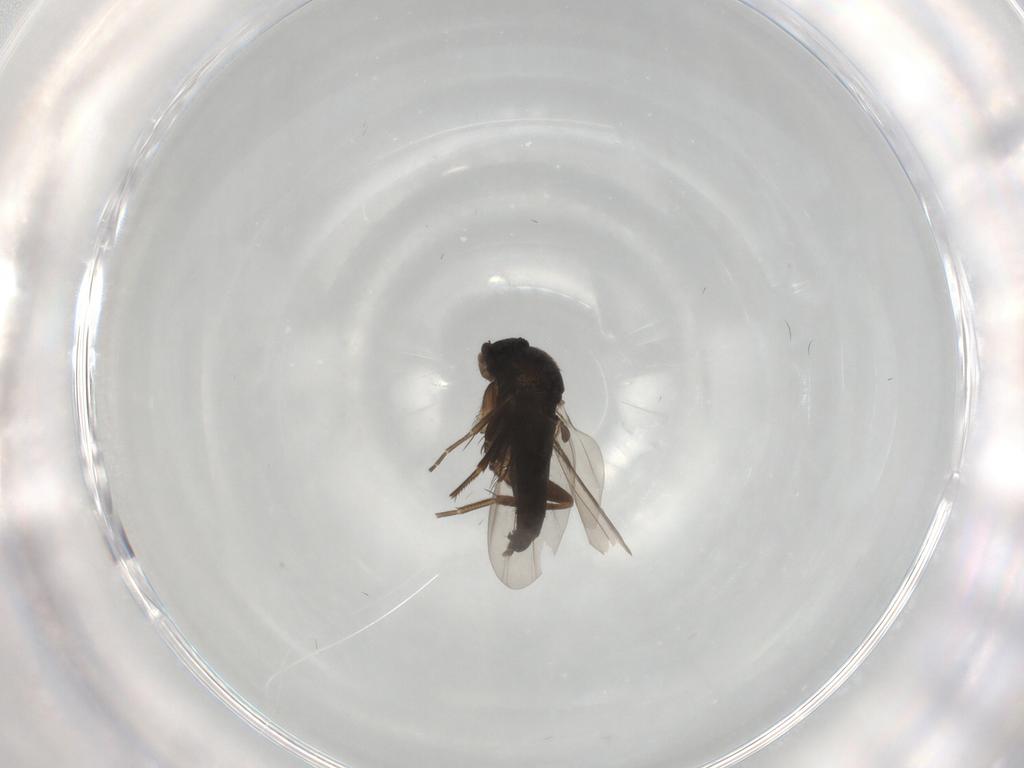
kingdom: Animalia
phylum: Arthropoda
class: Insecta
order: Diptera
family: Phoridae
